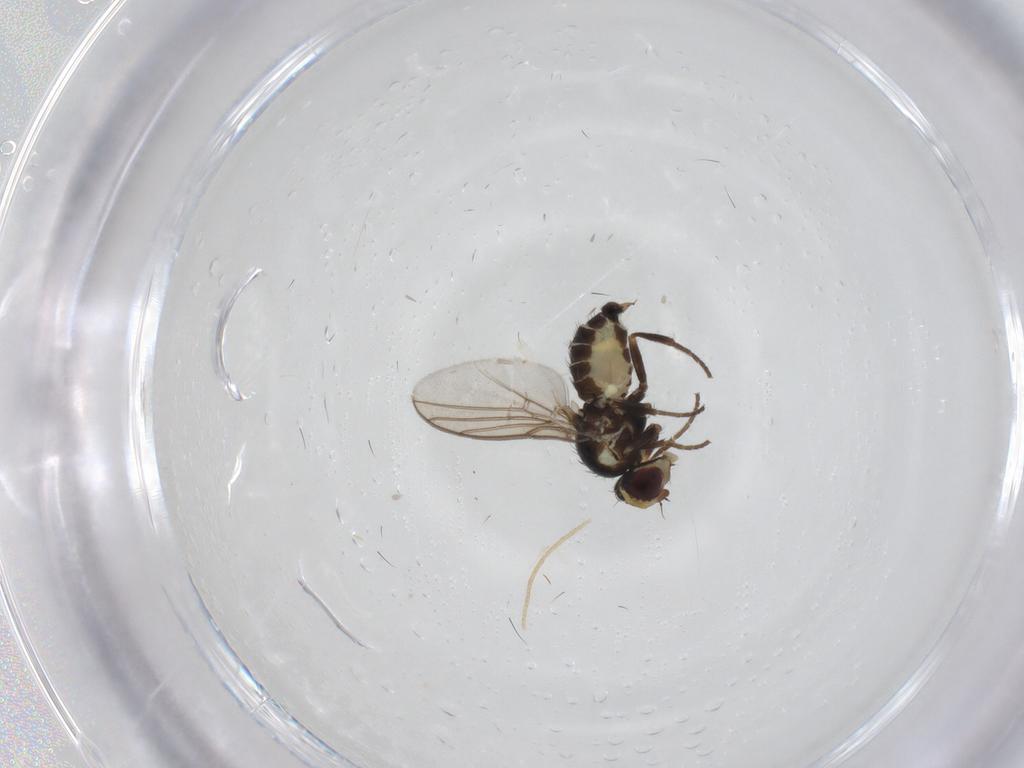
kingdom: Animalia
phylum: Arthropoda
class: Insecta
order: Diptera
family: Agromyzidae
